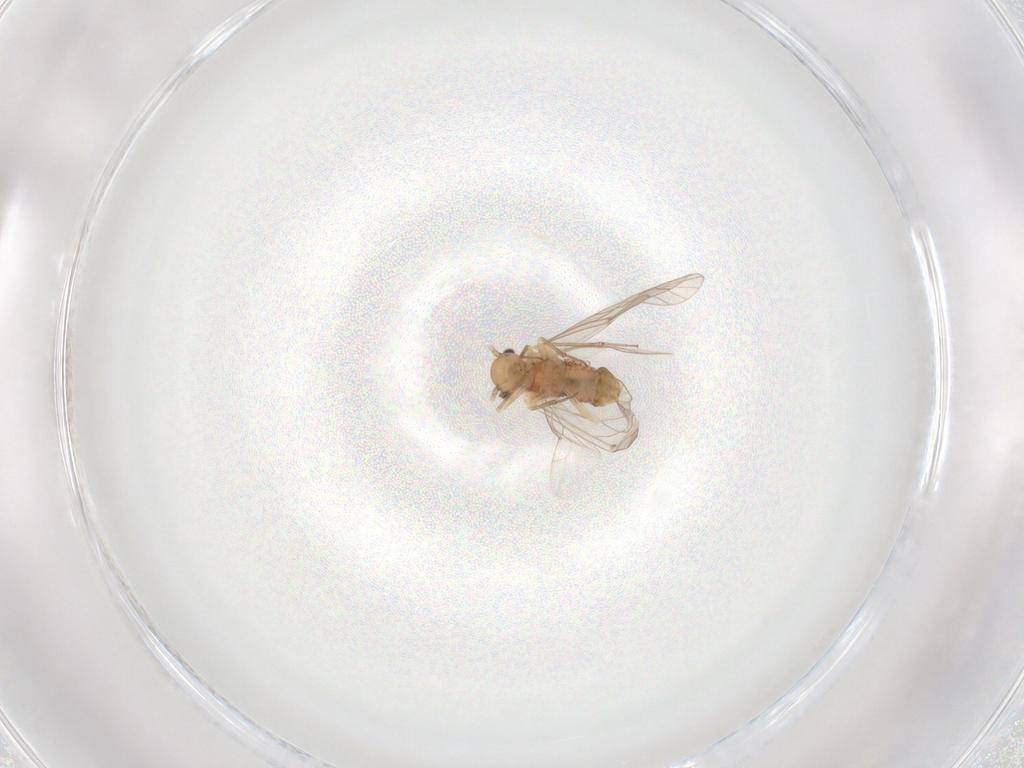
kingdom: Animalia
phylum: Arthropoda
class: Insecta
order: Psocodea
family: Lachesillidae
